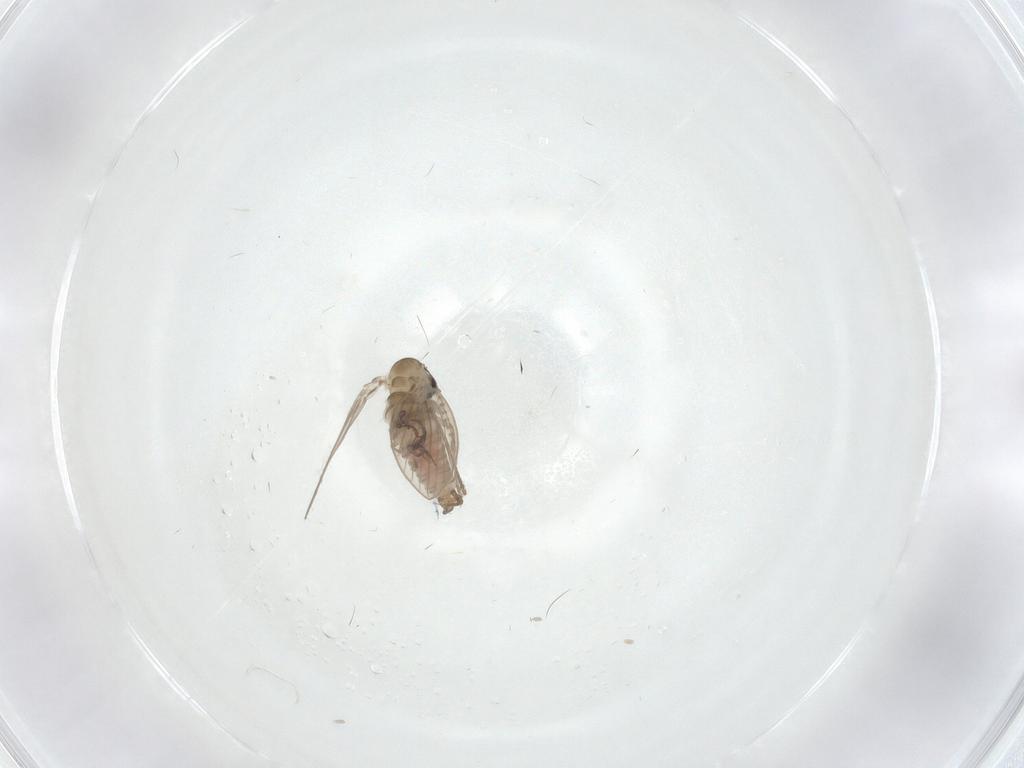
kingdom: Animalia
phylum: Arthropoda
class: Insecta
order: Diptera
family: Psychodidae
